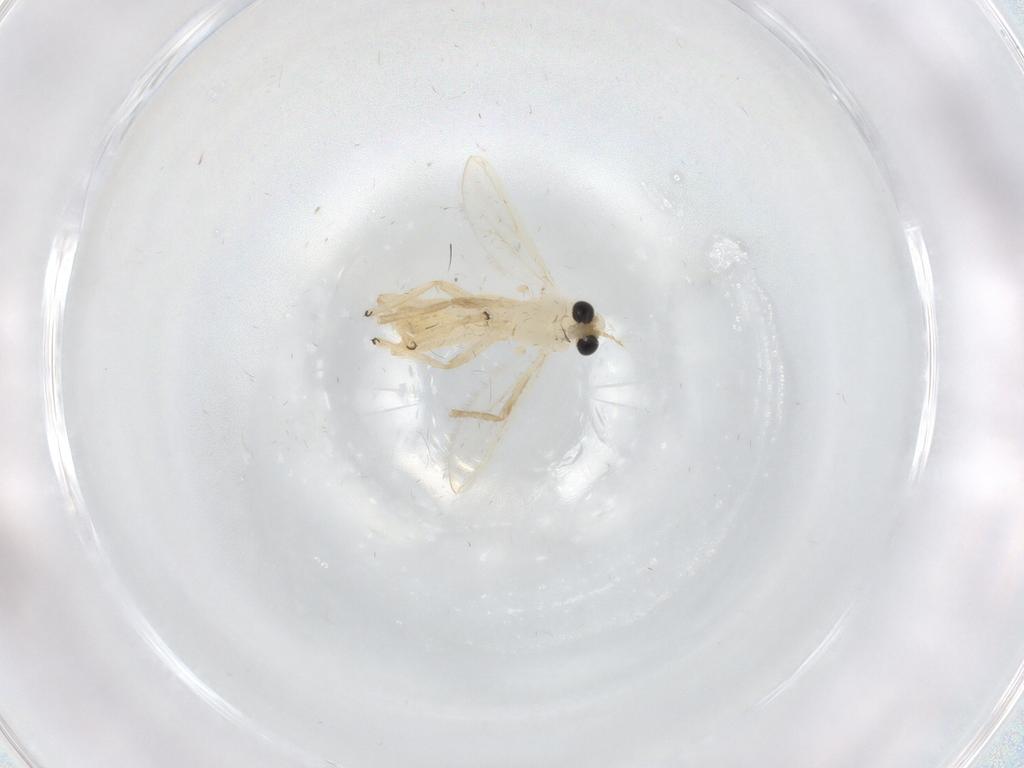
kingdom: Animalia
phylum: Arthropoda
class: Insecta
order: Diptera
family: Chironomidae
